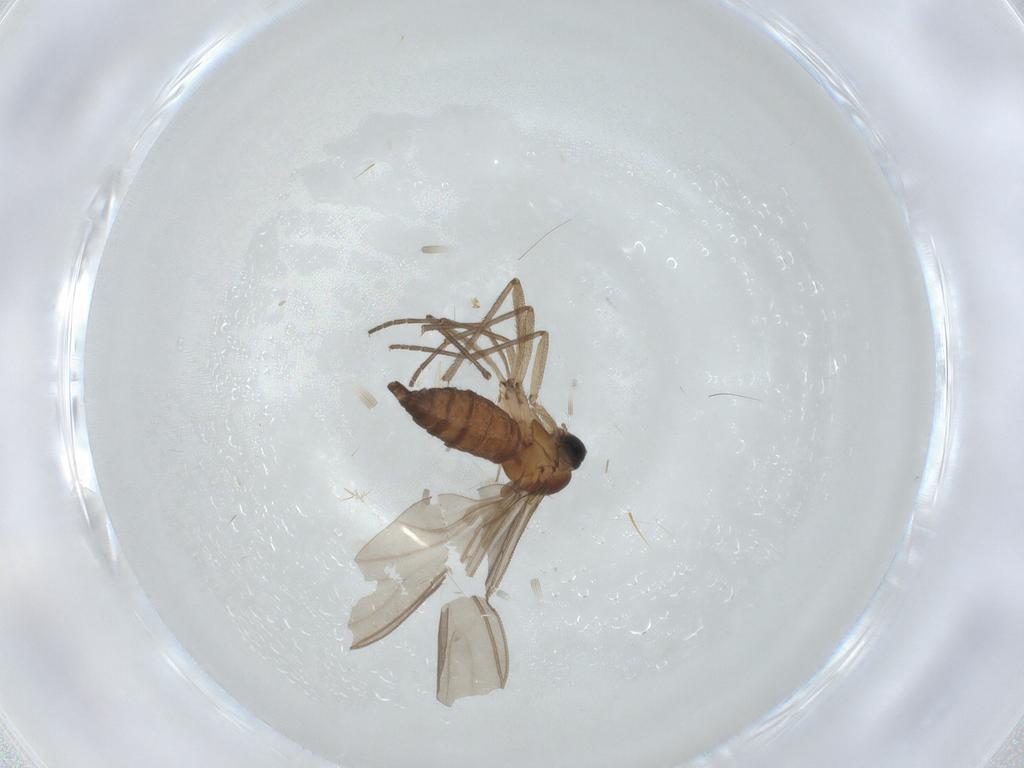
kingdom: Animalia
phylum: Arthropoda
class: Insecta
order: Diptera
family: Sciaridae
